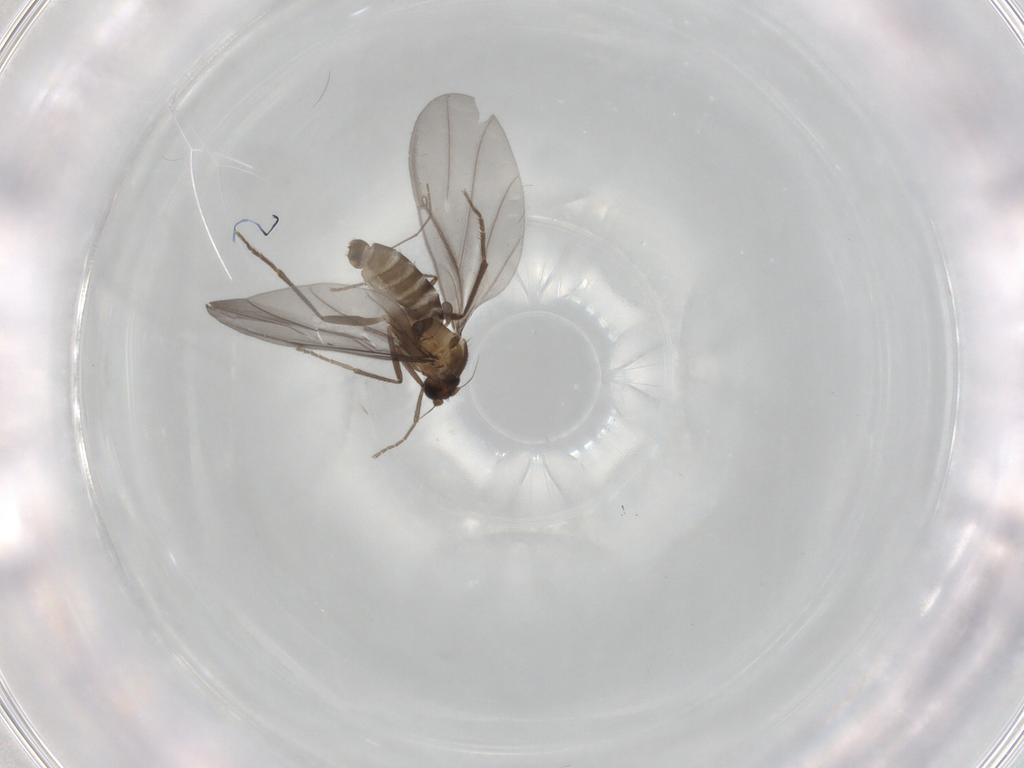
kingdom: Animalia
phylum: Arthropoda
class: Insecta
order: Diptera
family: Phoridae
